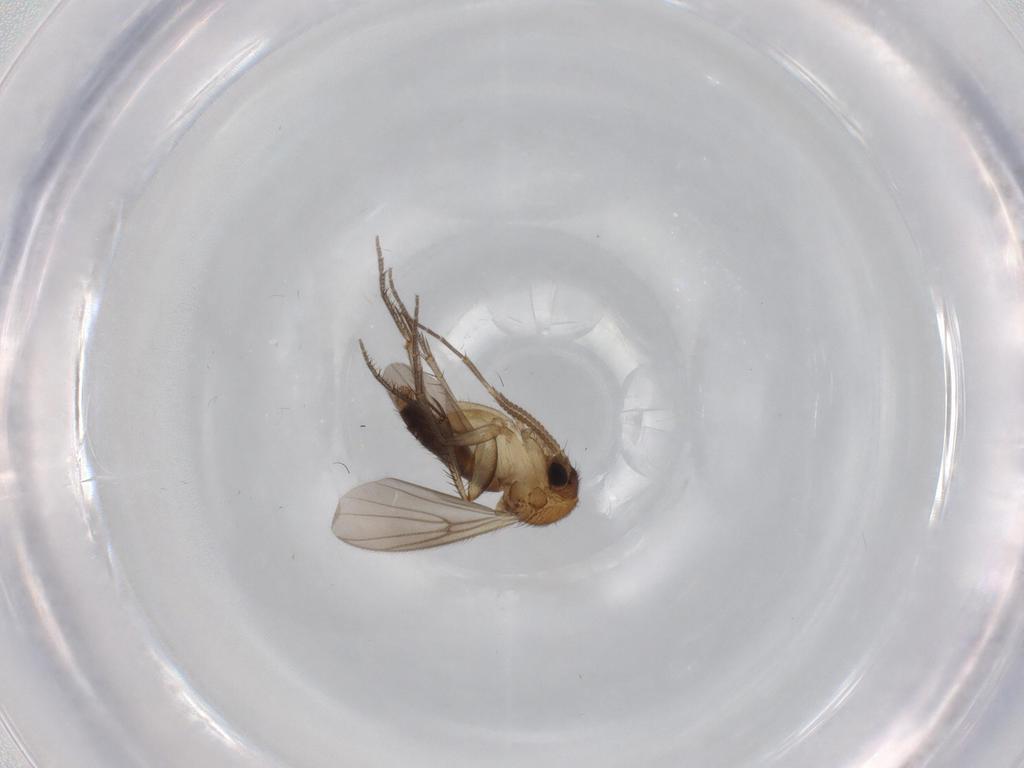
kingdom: Animalia
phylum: Arthropoda
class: Insecta
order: Diptera
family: Mycetophilidae
